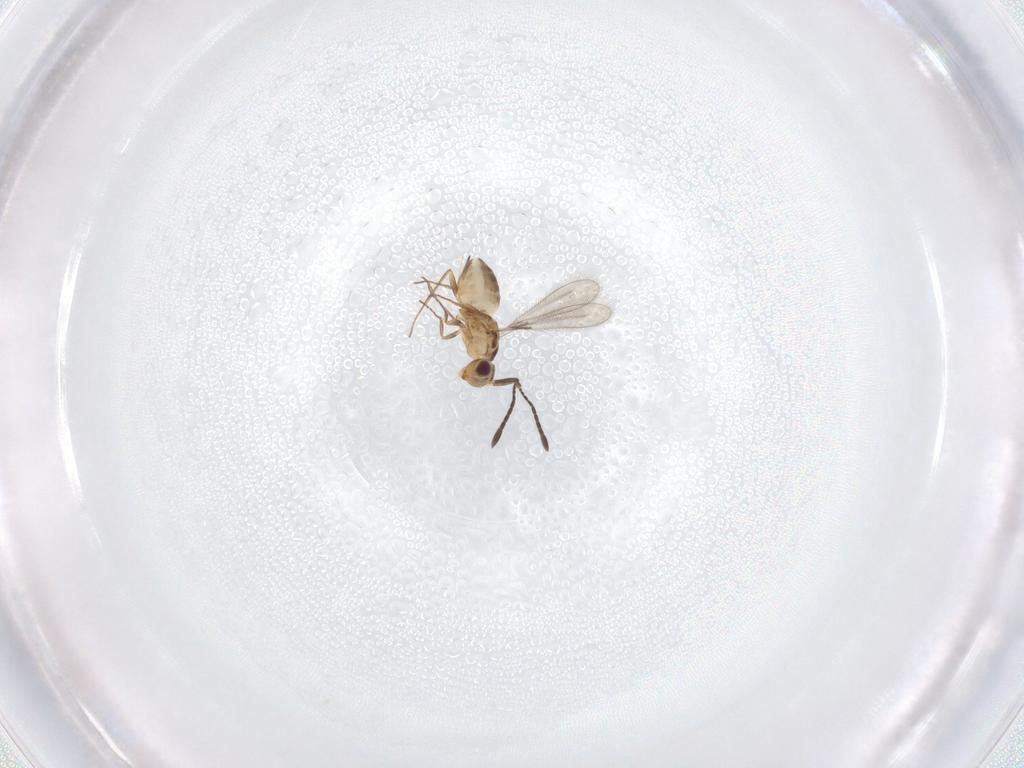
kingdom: Animalia
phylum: Arthropoda
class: Insecta
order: Hymenoptera
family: Mymaridae
